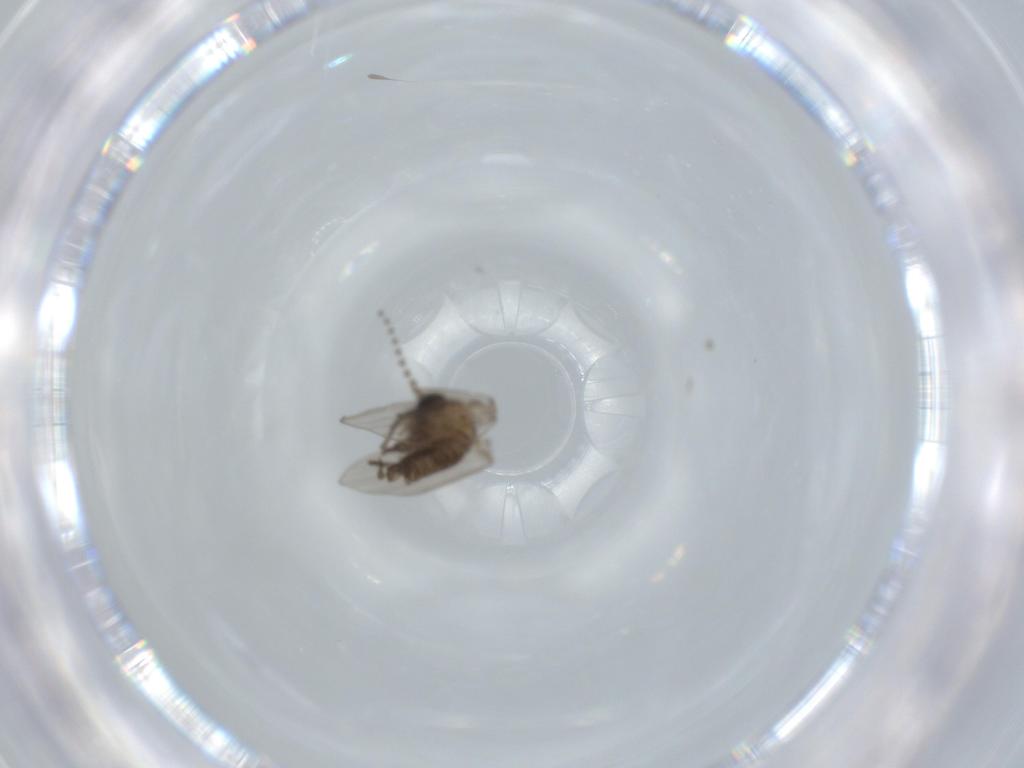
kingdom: Animalia
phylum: Arthropoda
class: Insecta
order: Diptera
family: Psychodidae
